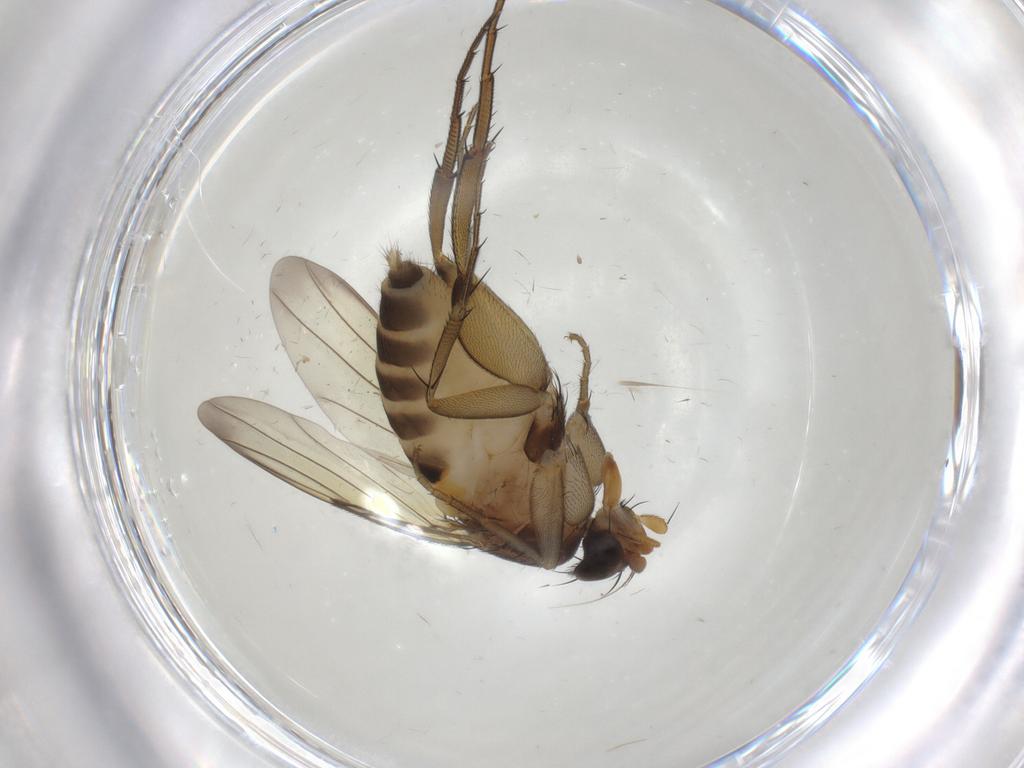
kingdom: Animalia
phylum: Arthropoda
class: Insecta
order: Diptera
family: Phoridae
